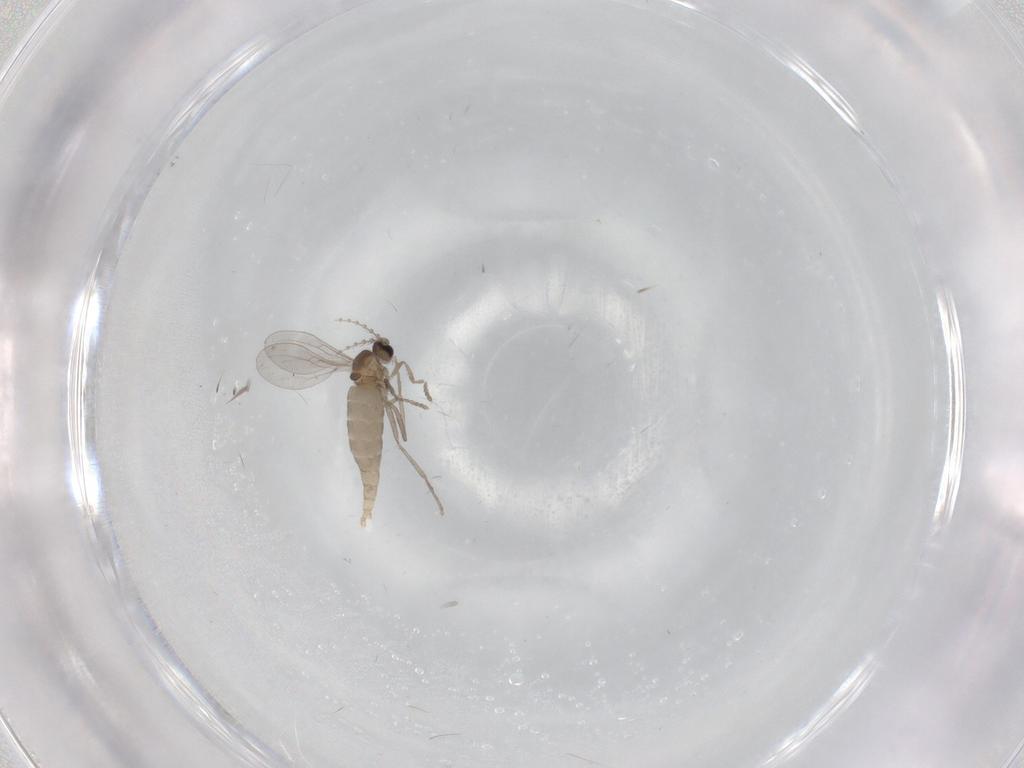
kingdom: Animalia
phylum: Arthropoda
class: Insecta
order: Diptera
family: Cecidomyiidae
